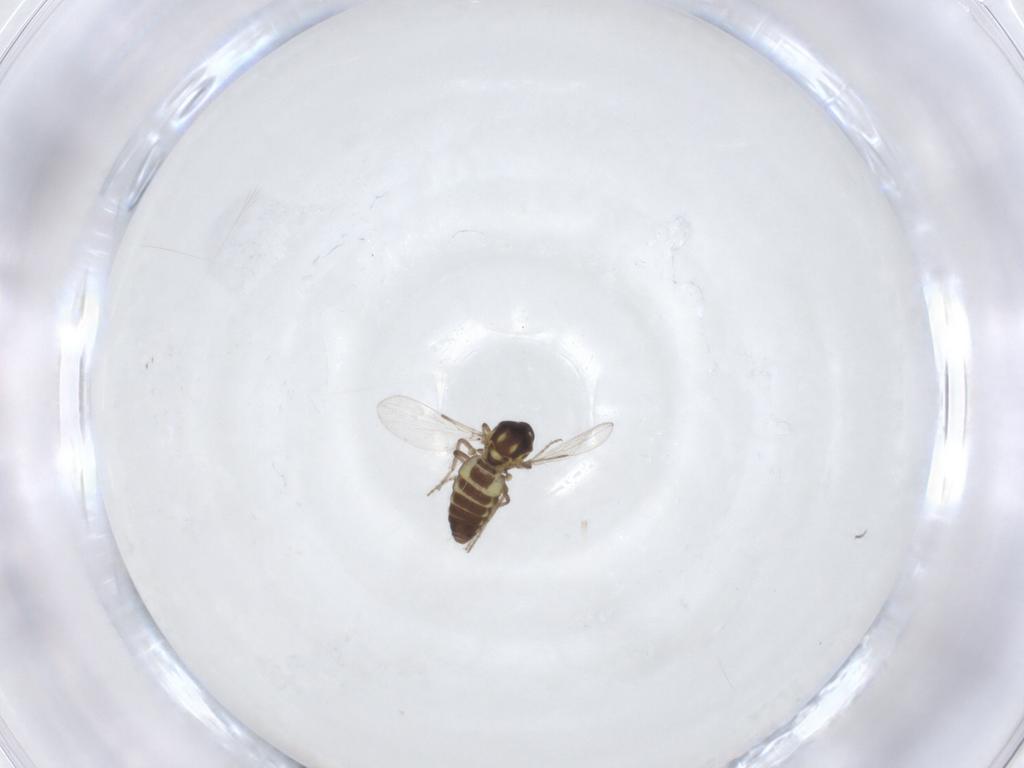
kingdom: Animalia
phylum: Arthropoda
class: Insecta
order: Diptera
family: Ceratopogonidae
